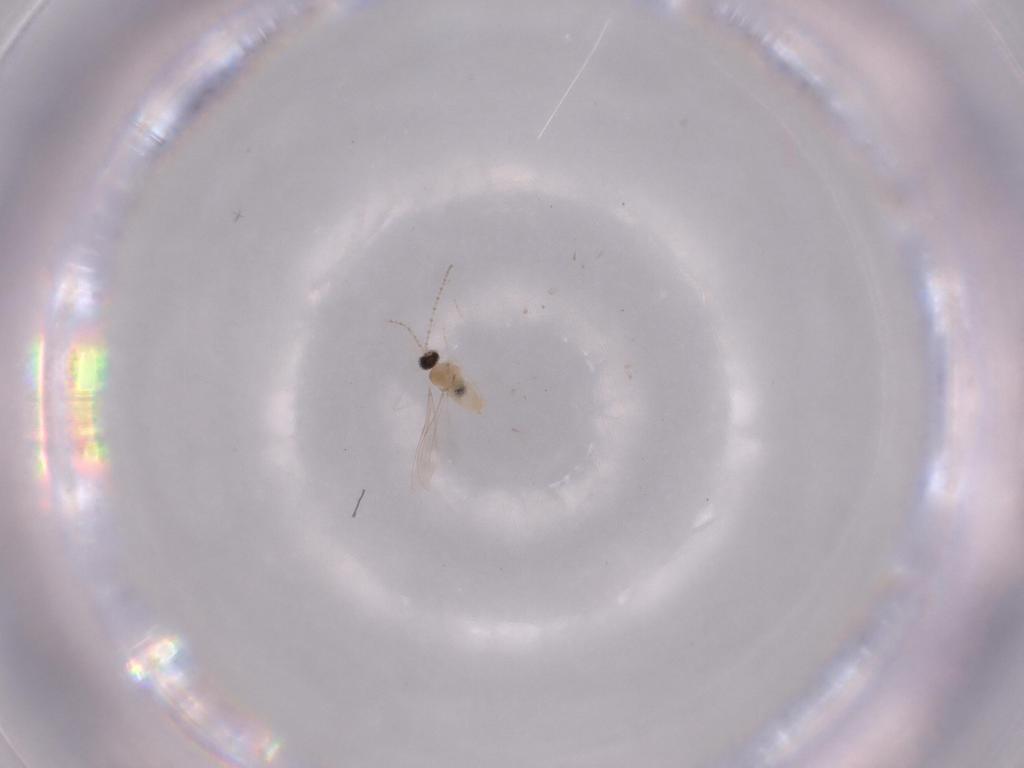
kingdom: Animalia
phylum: Arthropoda
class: Insecta
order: Diptera
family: Cecidomyiidae
